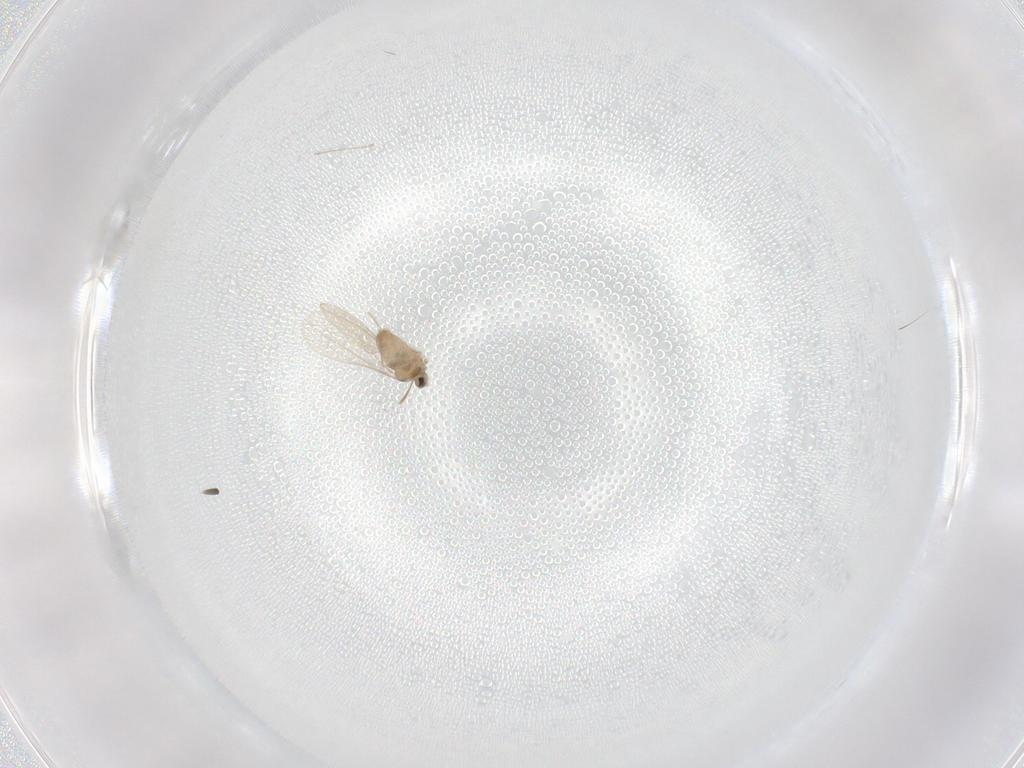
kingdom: Animalia
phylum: Arthropoda
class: Insecta
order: Diptera
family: Cecidomyiidae
